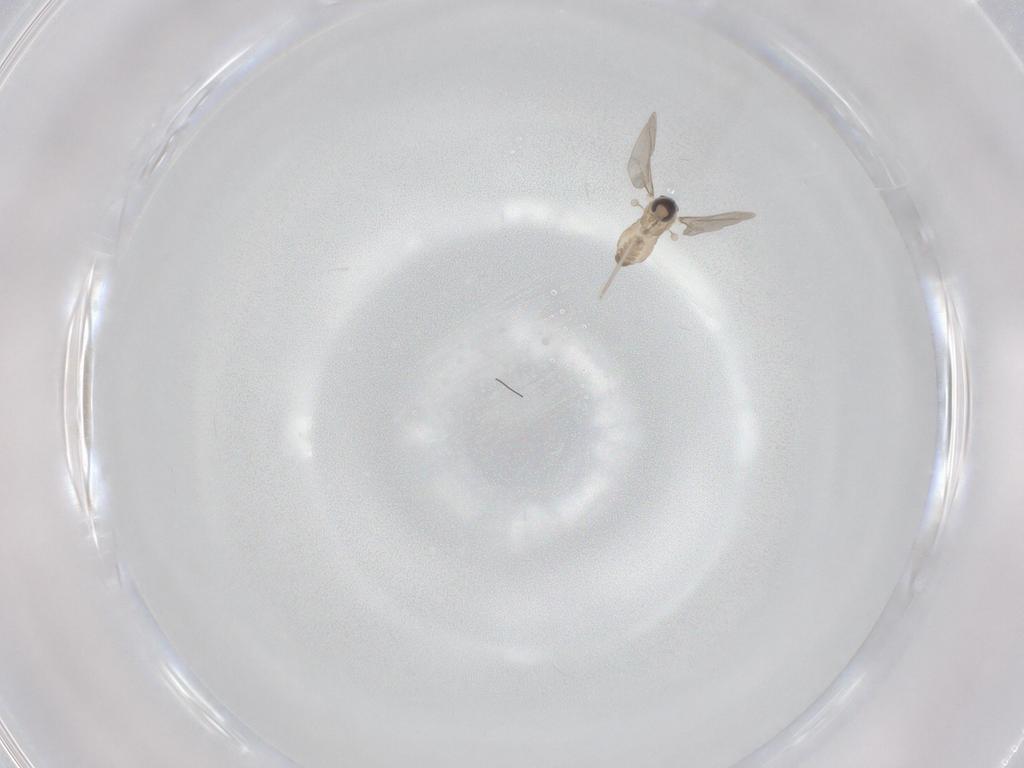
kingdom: Animalia
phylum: Arthropoda
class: Insecta
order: Diptera
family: Cecidomyiidae
